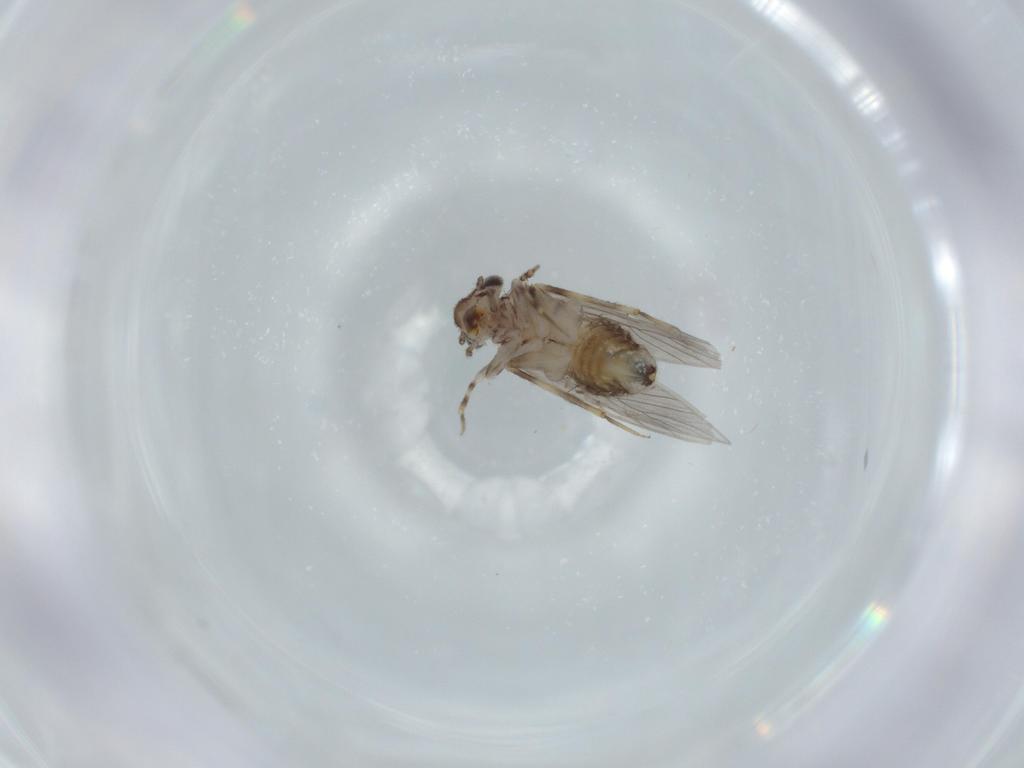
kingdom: Animalia
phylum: Arthropoda
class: Insecta
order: Psocodea
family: Lepidopsocidae
